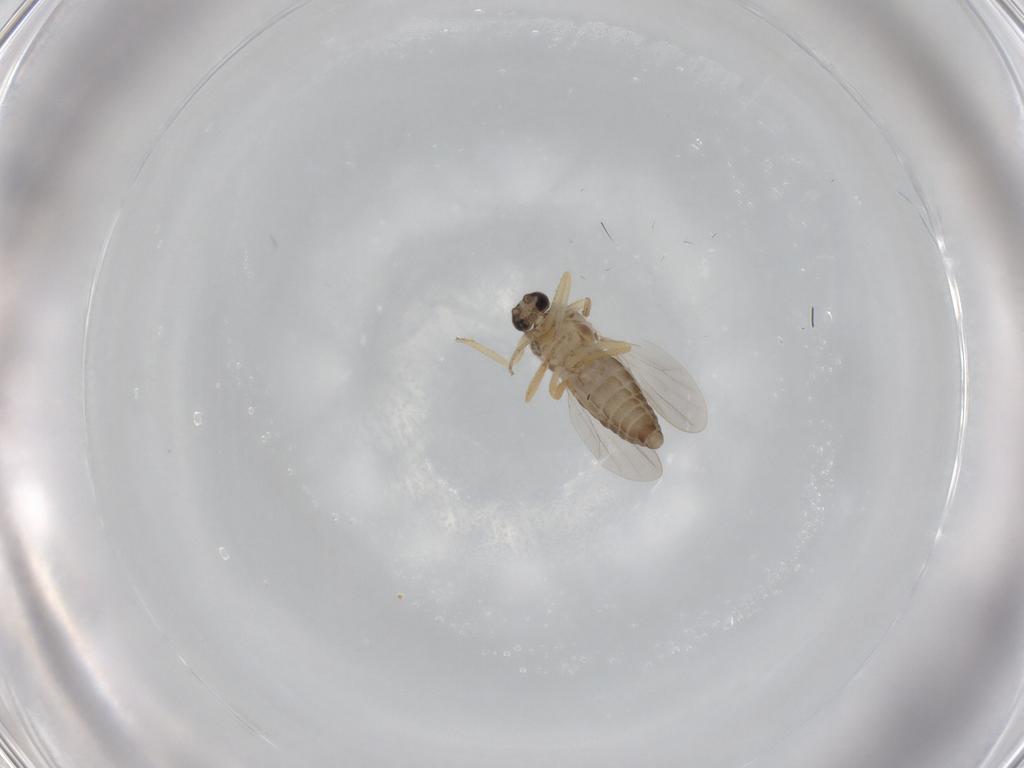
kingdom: Animalia
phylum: Arthropoda
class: Insecta
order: Diptera
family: Ceratopogonidae
